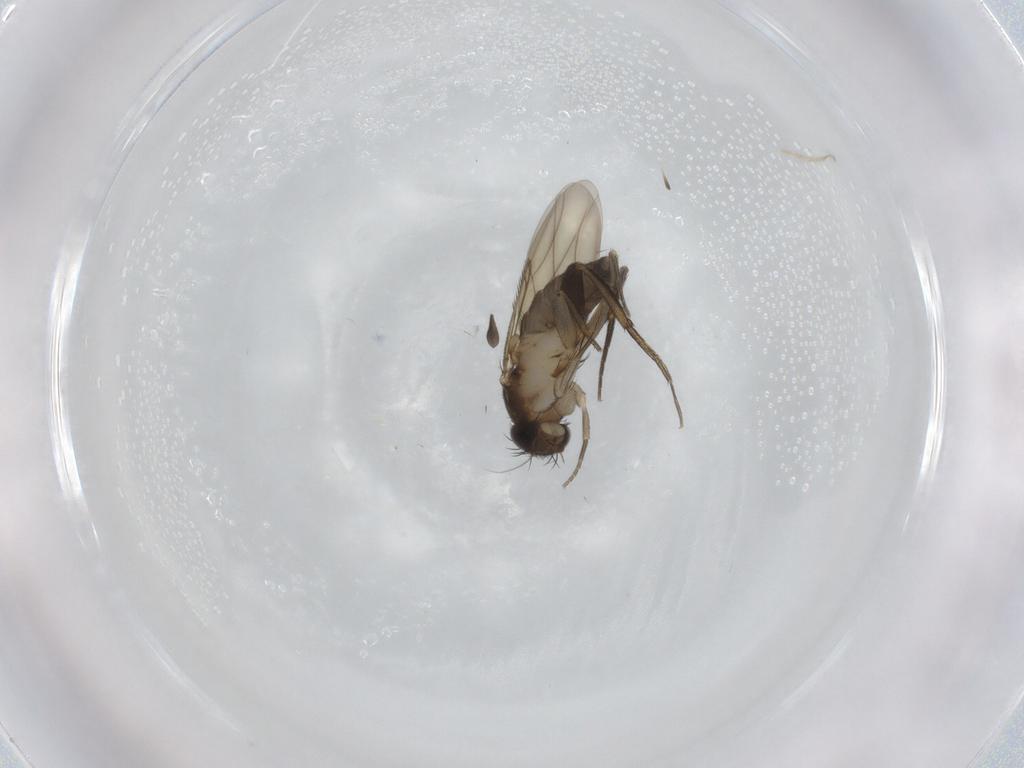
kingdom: Animalia
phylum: Arthropoda
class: Insecta
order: Diptera
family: Phoridae
